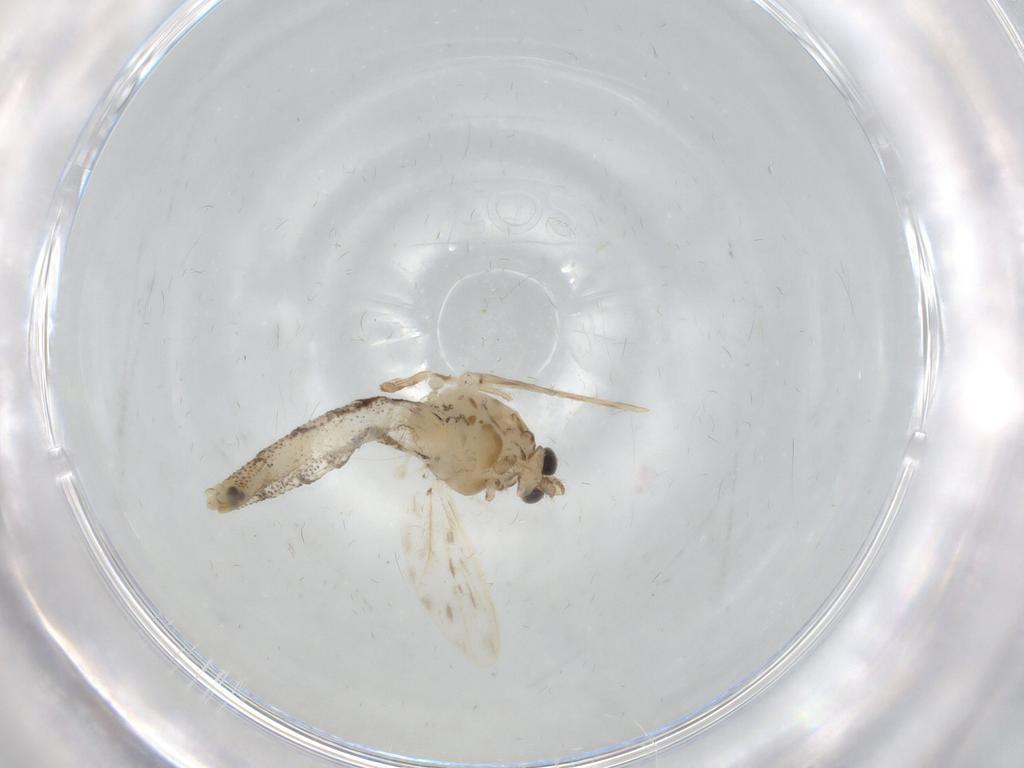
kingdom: Animalia
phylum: Arthropoda
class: Insecta
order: Diptera
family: Chaoboridae
